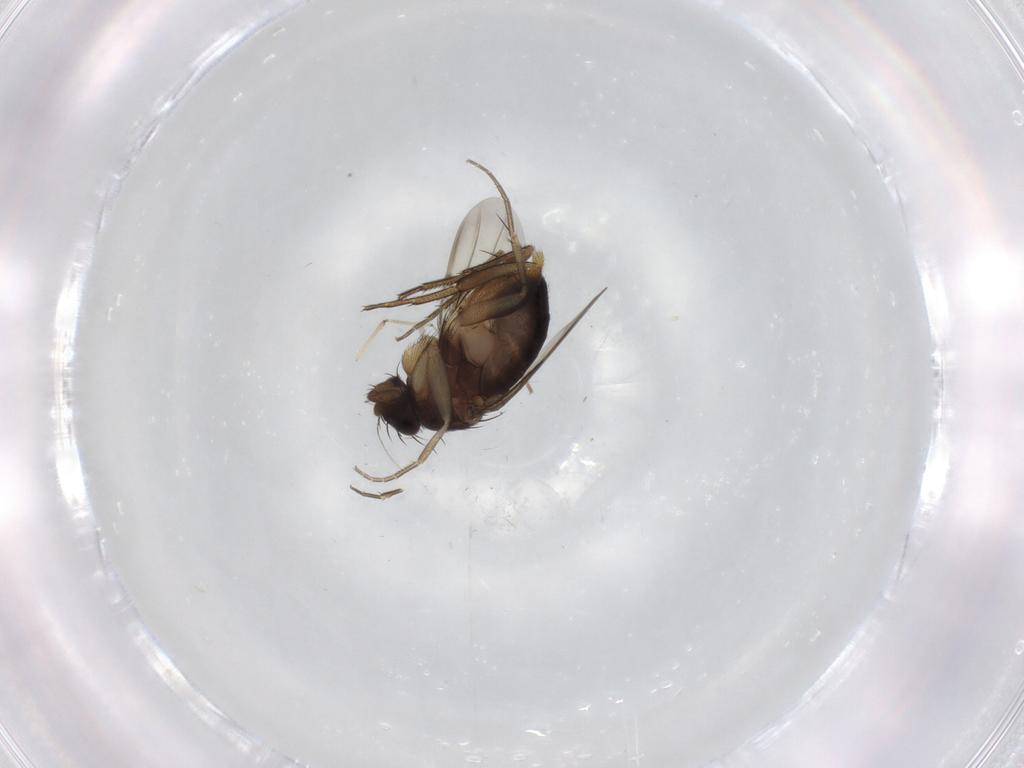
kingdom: Animalia
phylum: Arthropoda
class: Insecta
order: Diptera
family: Phoridae
